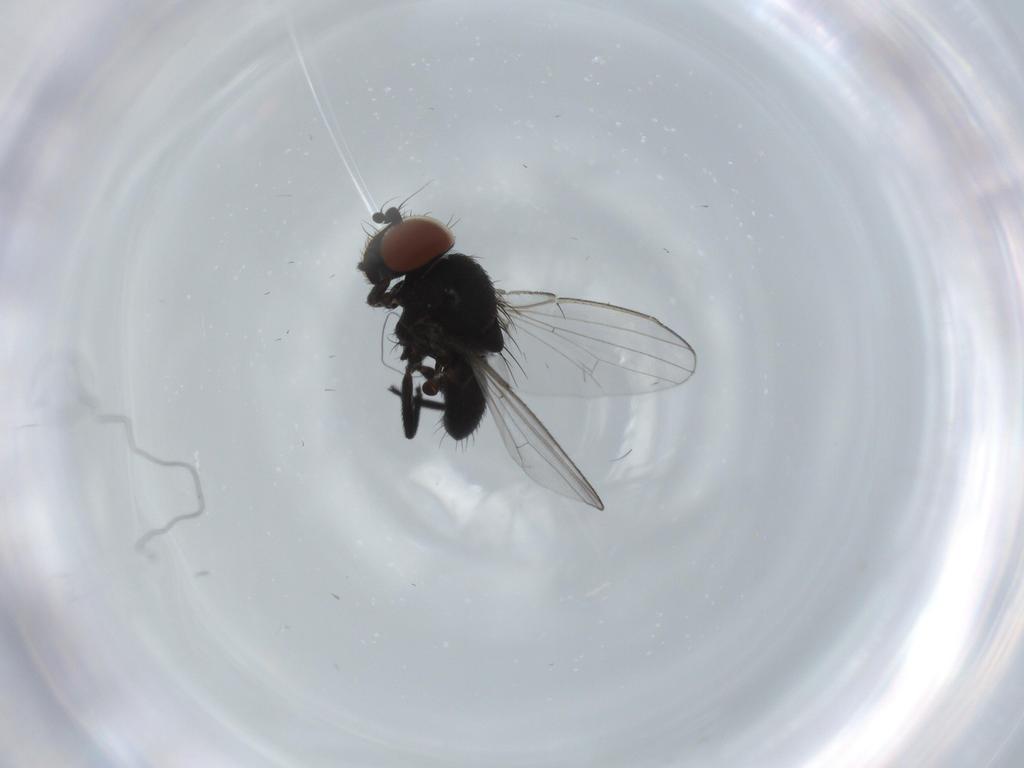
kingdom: Animalia
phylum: Arthropoda
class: Insecta
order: Diptera
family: Milichiidae
